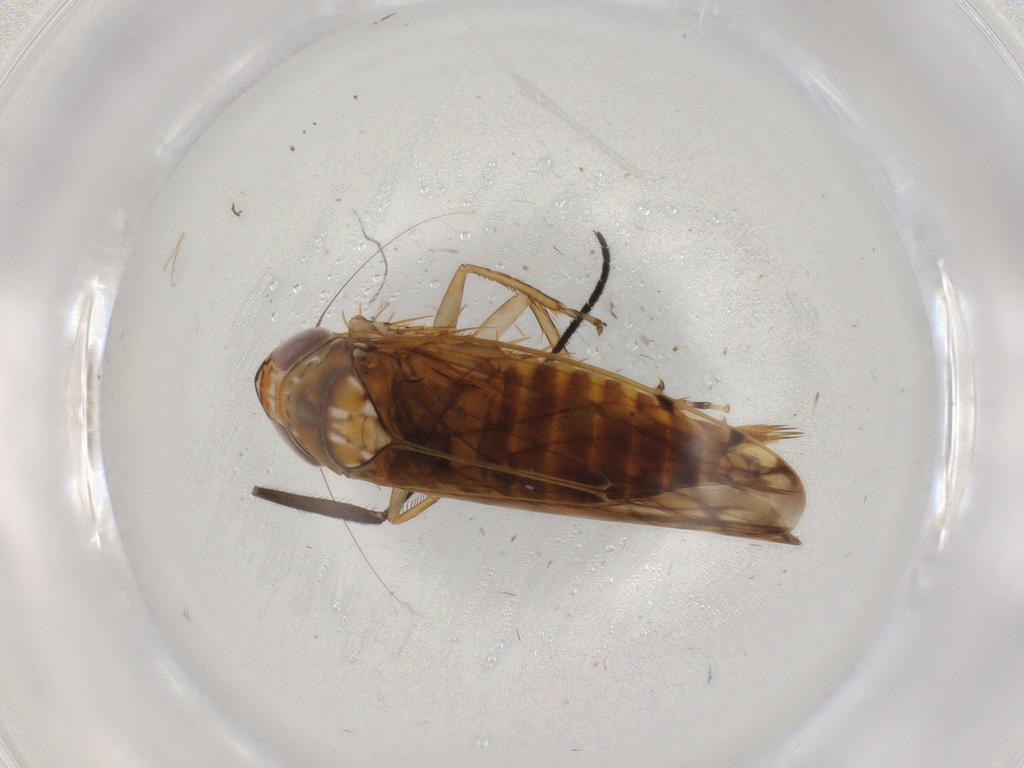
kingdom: Animalia
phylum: Arthropoda
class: Insecta
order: Hemiptera
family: Cicadellidae
